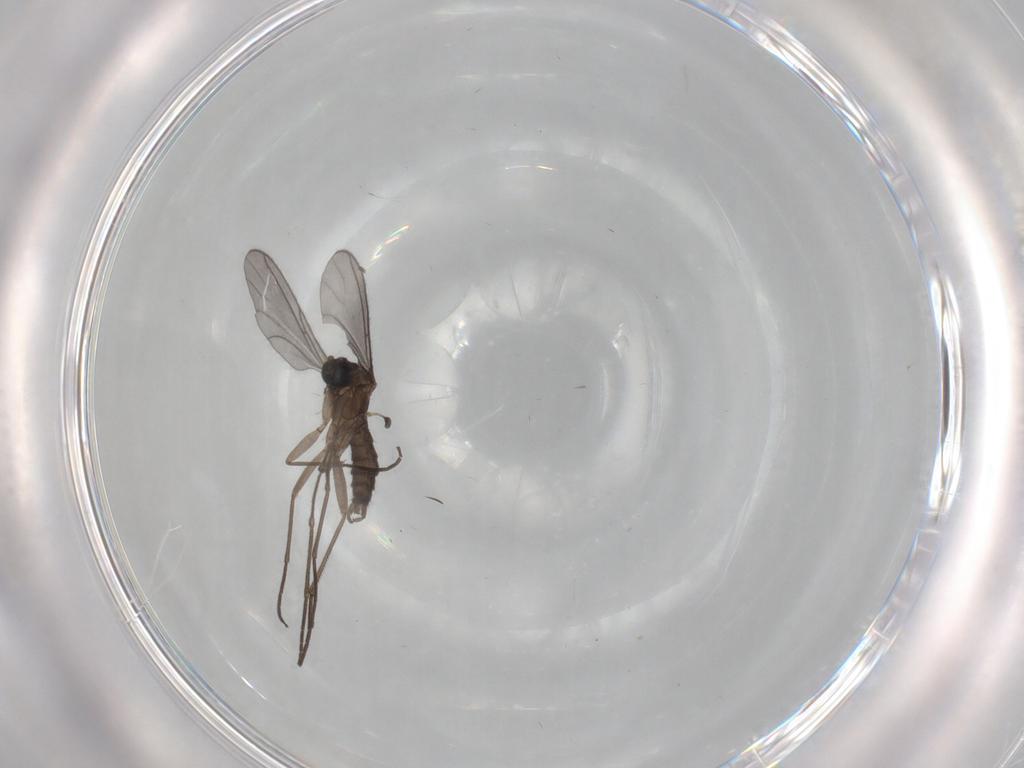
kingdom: Animalia
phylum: Arthropoda
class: Insecta
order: Diptera
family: Sciaridae
